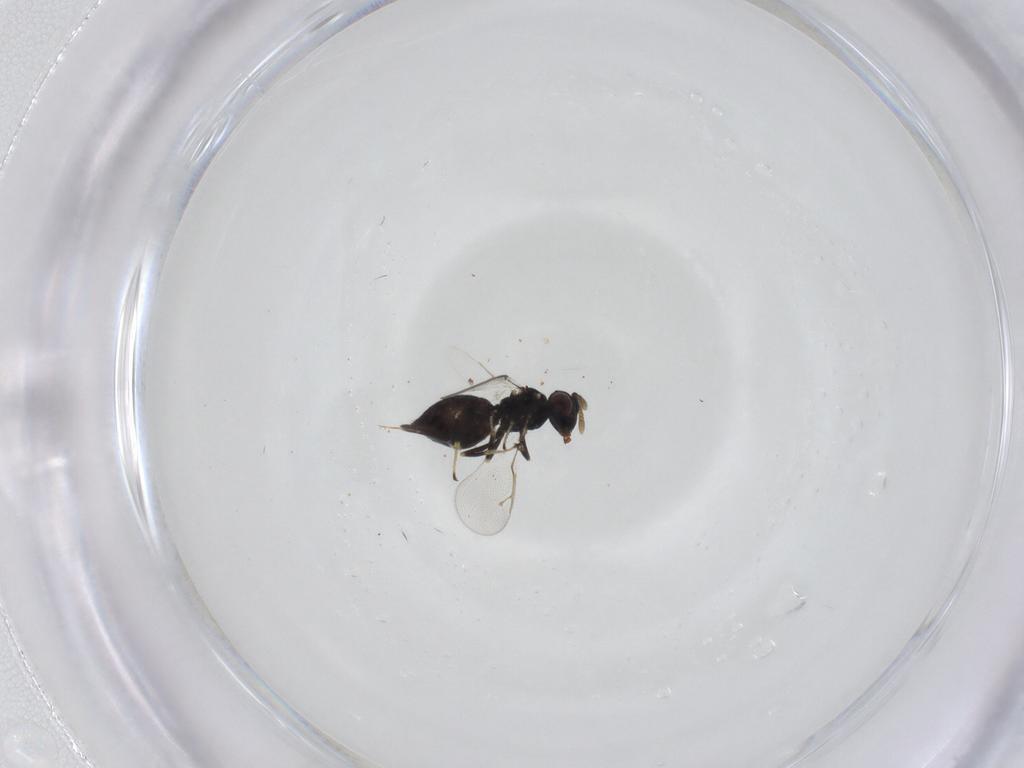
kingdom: Animalia
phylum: Arthropoda
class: Insecta
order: Hymenoptera
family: Pteromalidae
